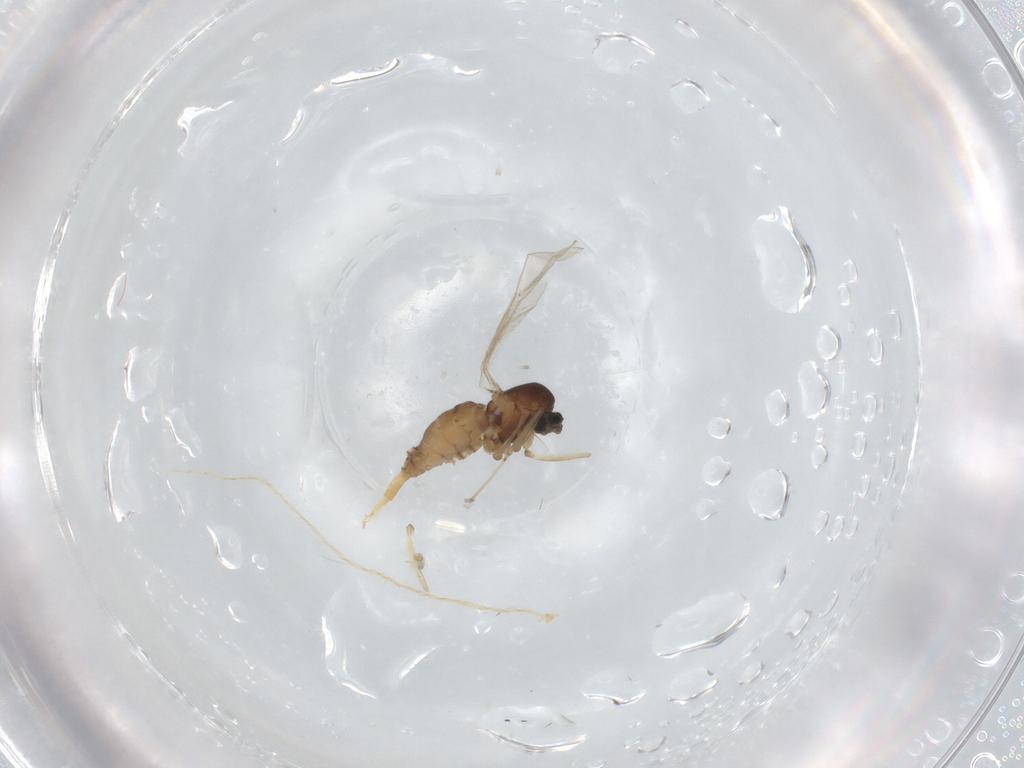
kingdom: Animalia
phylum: Arthropoda
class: Insecta
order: Diptera
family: Cecidomyiidae
